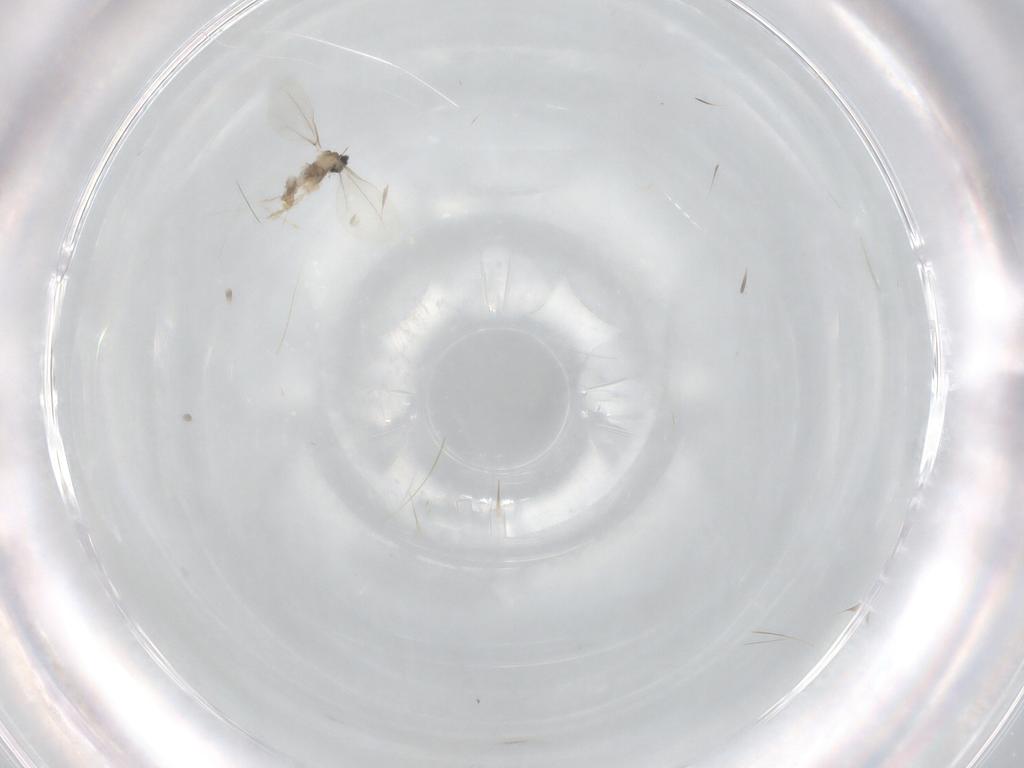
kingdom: Animalia
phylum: Arthropoda
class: Insecta
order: Diptera
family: Cecidomyiidae
